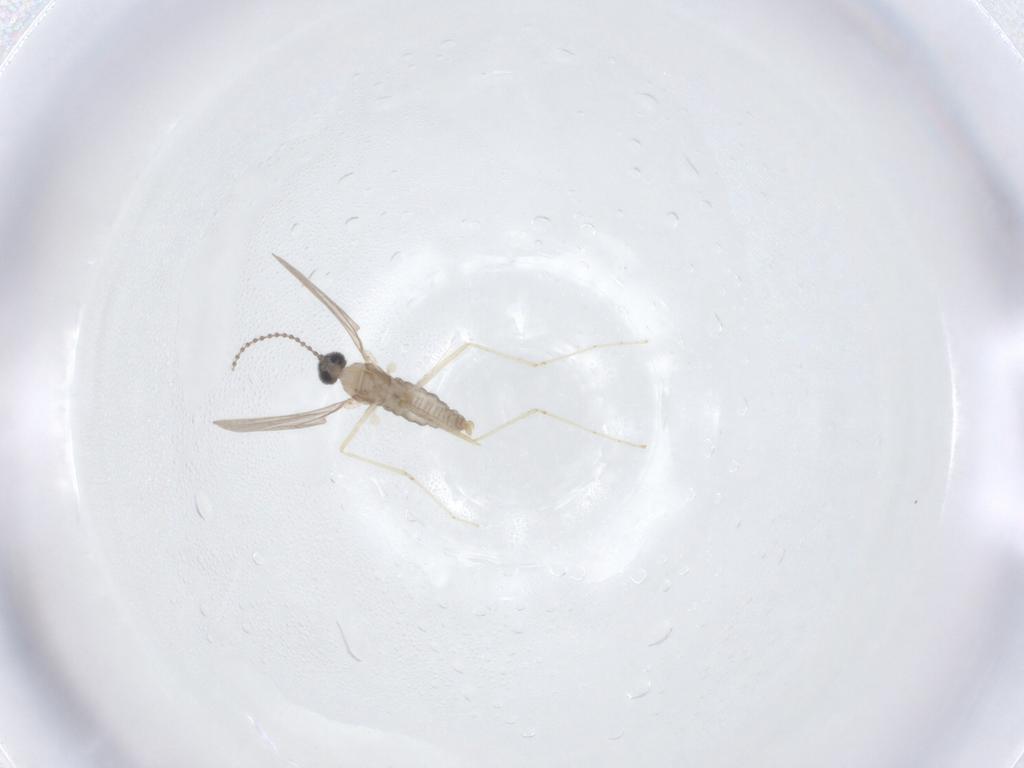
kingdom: Animalia
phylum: Arthropoda
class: Insecta
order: Diptera
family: Cecidomyiidae
